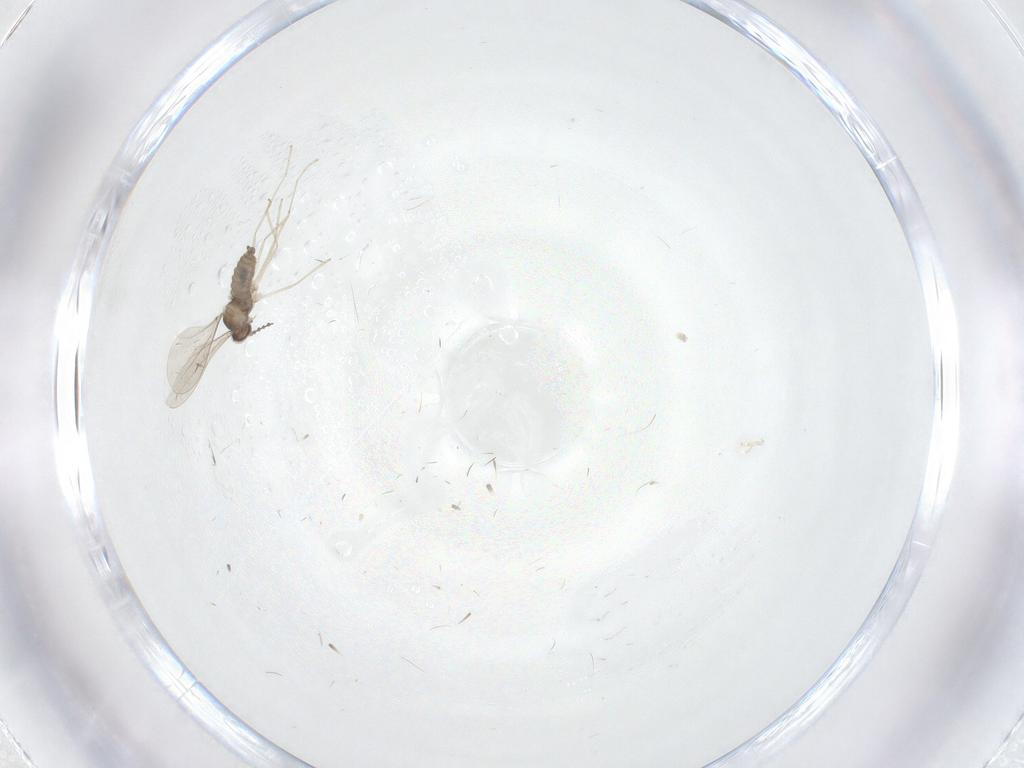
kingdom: Animalia
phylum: Arthropoda
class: Insecta
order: Diptera
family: Cecidomyiidae
